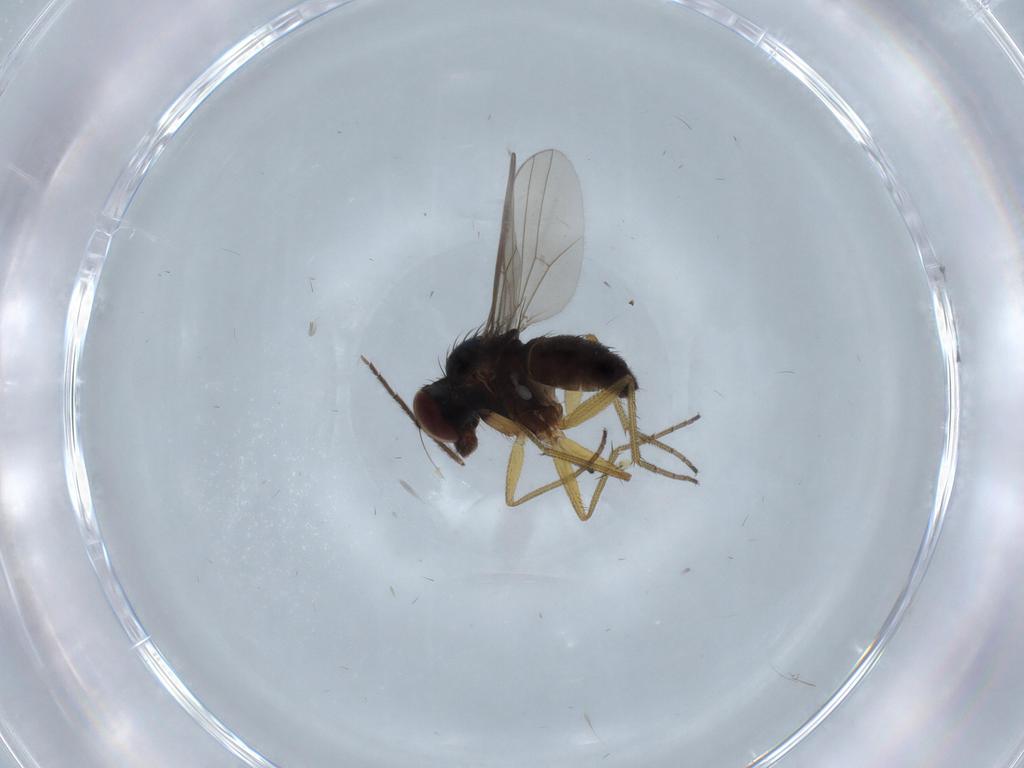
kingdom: Animalia
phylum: Arthropoda
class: Insecta
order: Diptera
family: Dolichopodidae
